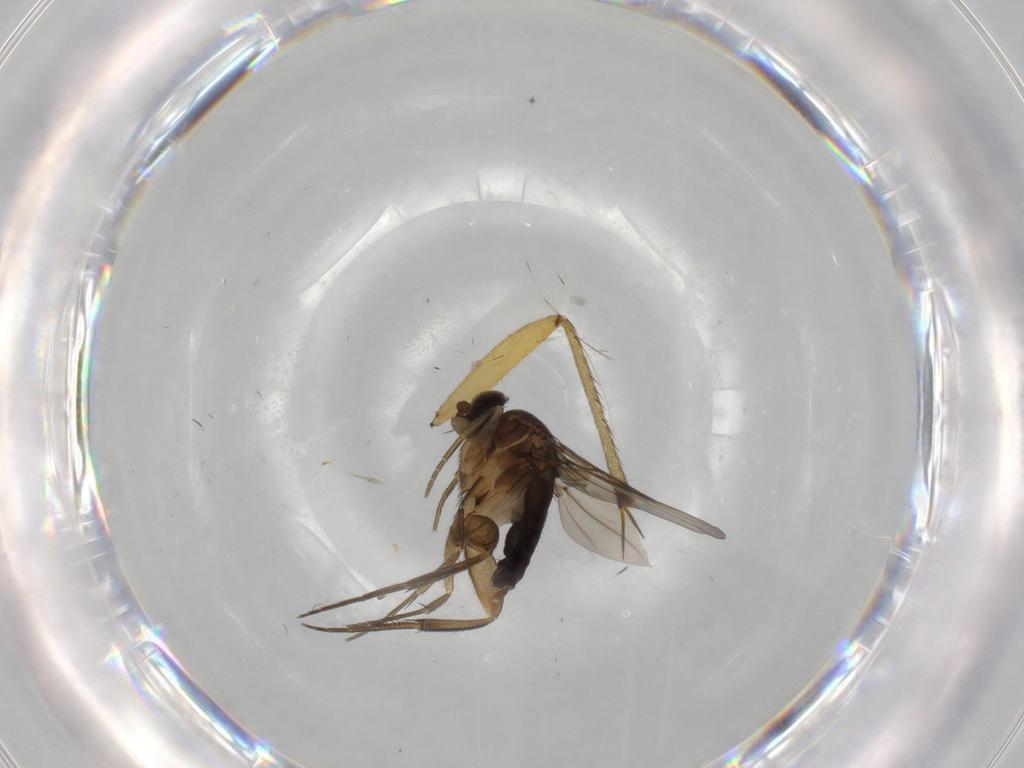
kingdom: Animalia
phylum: Arthropoda
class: Insecta
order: Diptera
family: Phoridae
